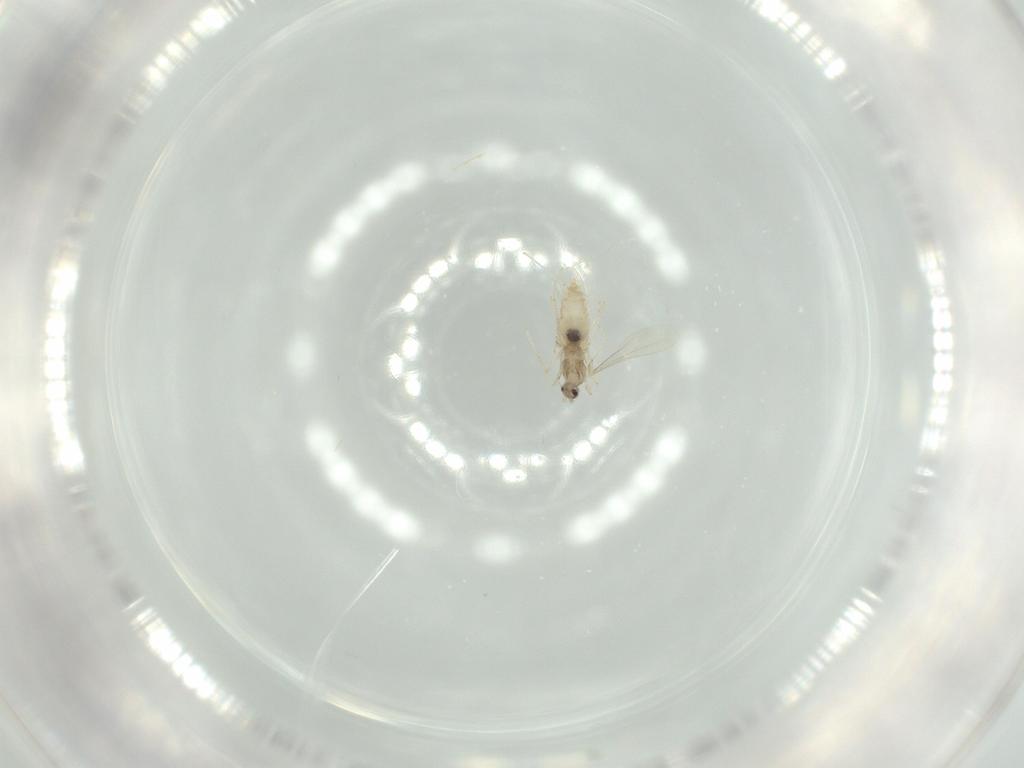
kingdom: Animalia
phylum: Arthropoda
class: Insecta
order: Diptera
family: Cecidomyiidae
